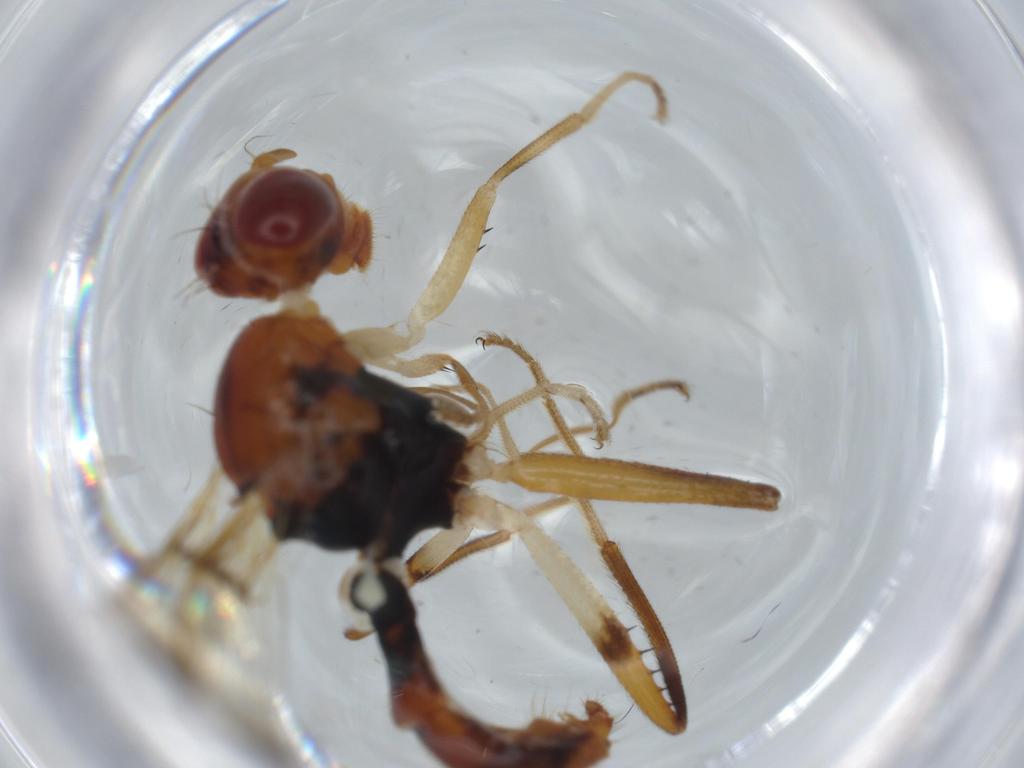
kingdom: Animalia
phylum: Arthropoda
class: Insecta
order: Diptera
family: Richardiidae
